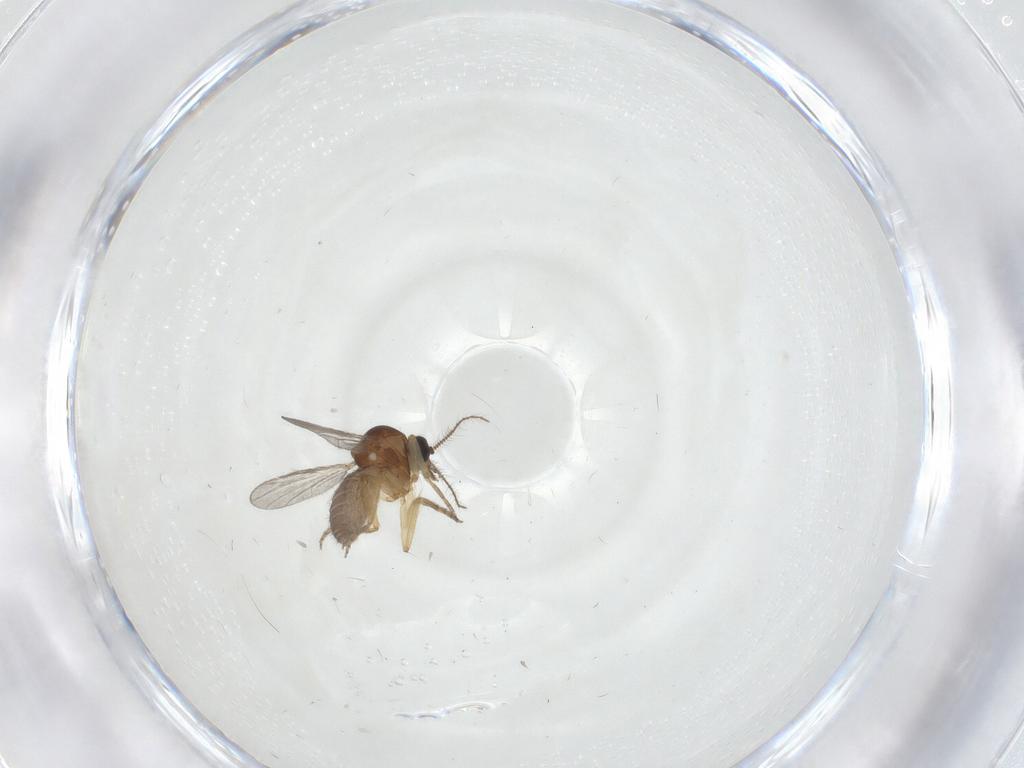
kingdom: Animalia
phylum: Arthropoda
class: Insecta
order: Diptera
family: Ceratopogonidae
